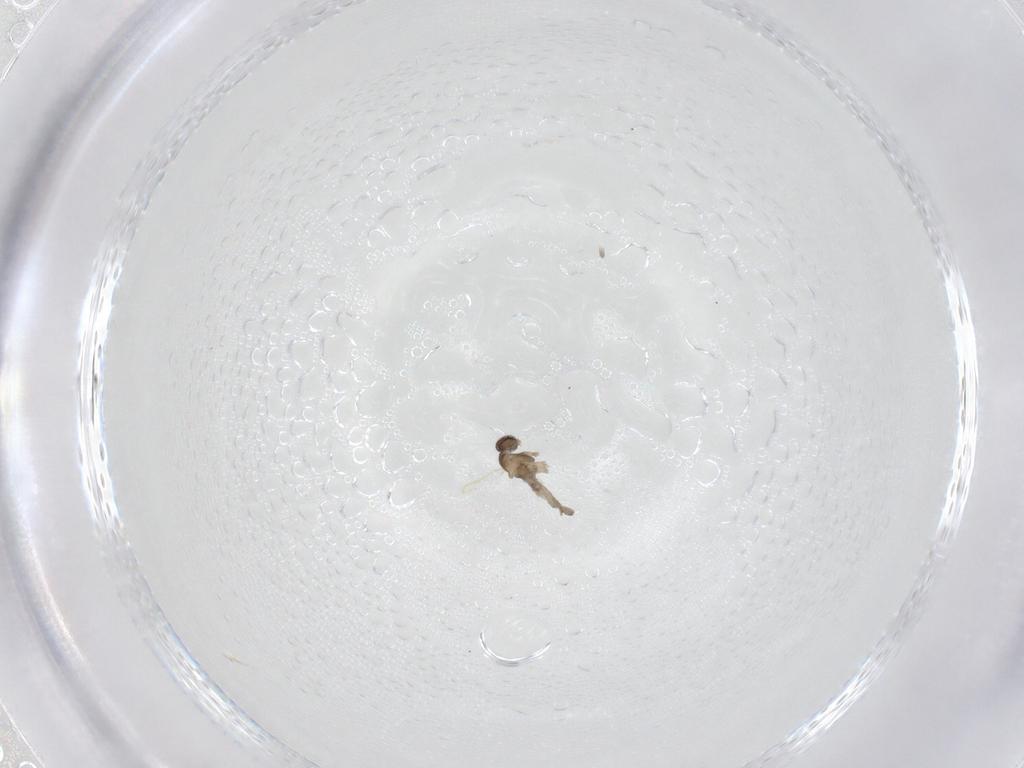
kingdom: Animalia
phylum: Arthropoda
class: Insecta
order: Diptera
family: Cecidomyiidae
